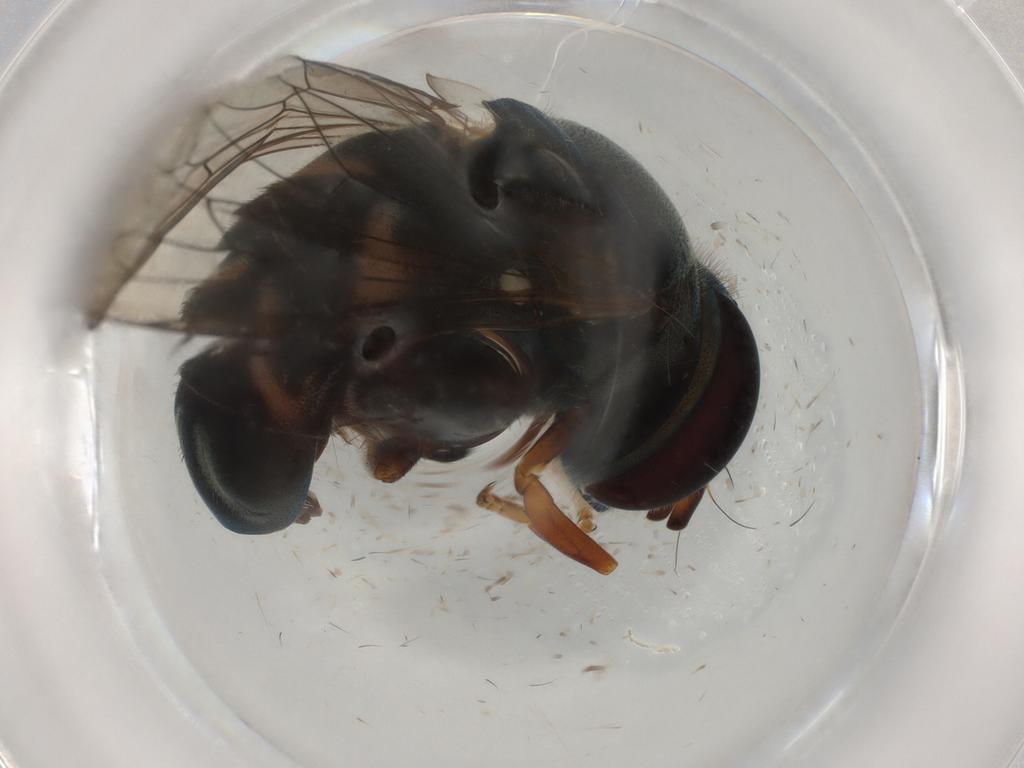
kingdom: Animalia
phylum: Arthropoda
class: Insecta
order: Diptera
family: Syrphidae
